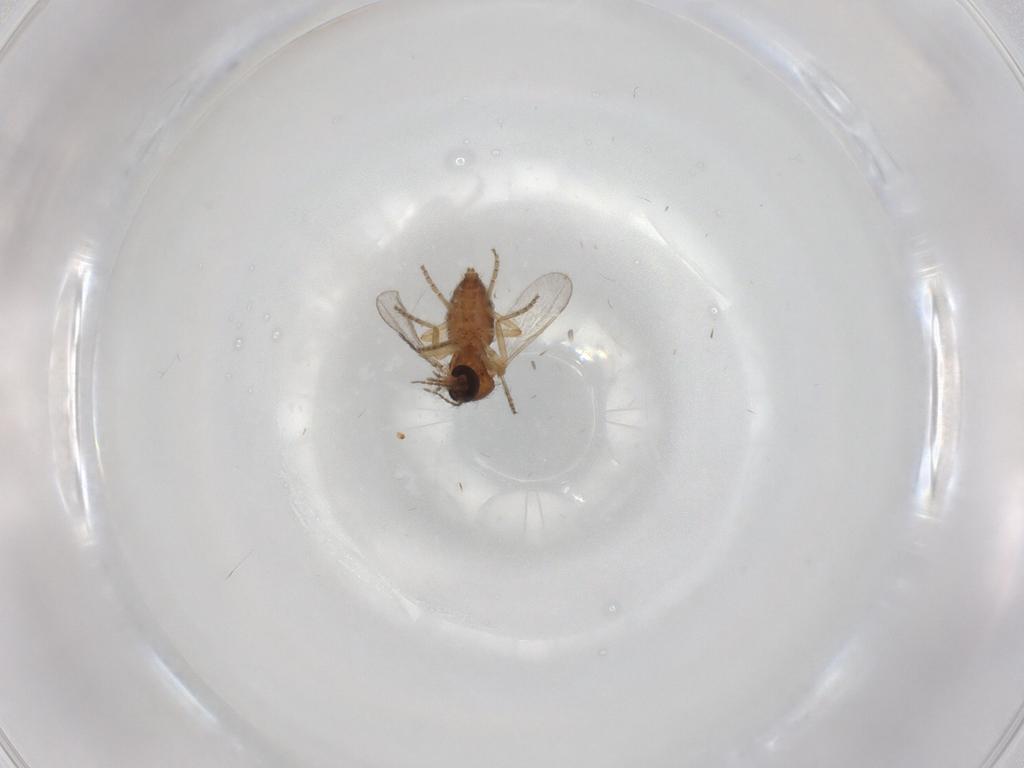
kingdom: Animalia
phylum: Arthropoda
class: Insecta
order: Diptera
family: Ceratopogonidae
